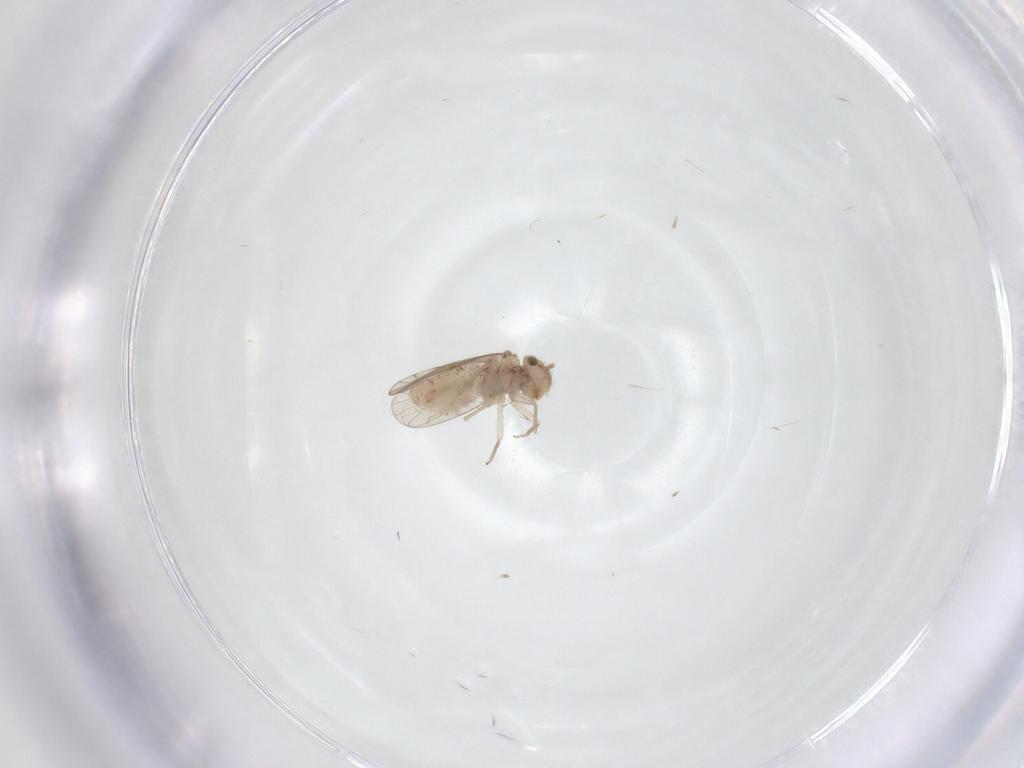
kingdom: Animalia
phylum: Arthropoda
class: Insecta
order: Psocodea
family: Ectopsocidae
